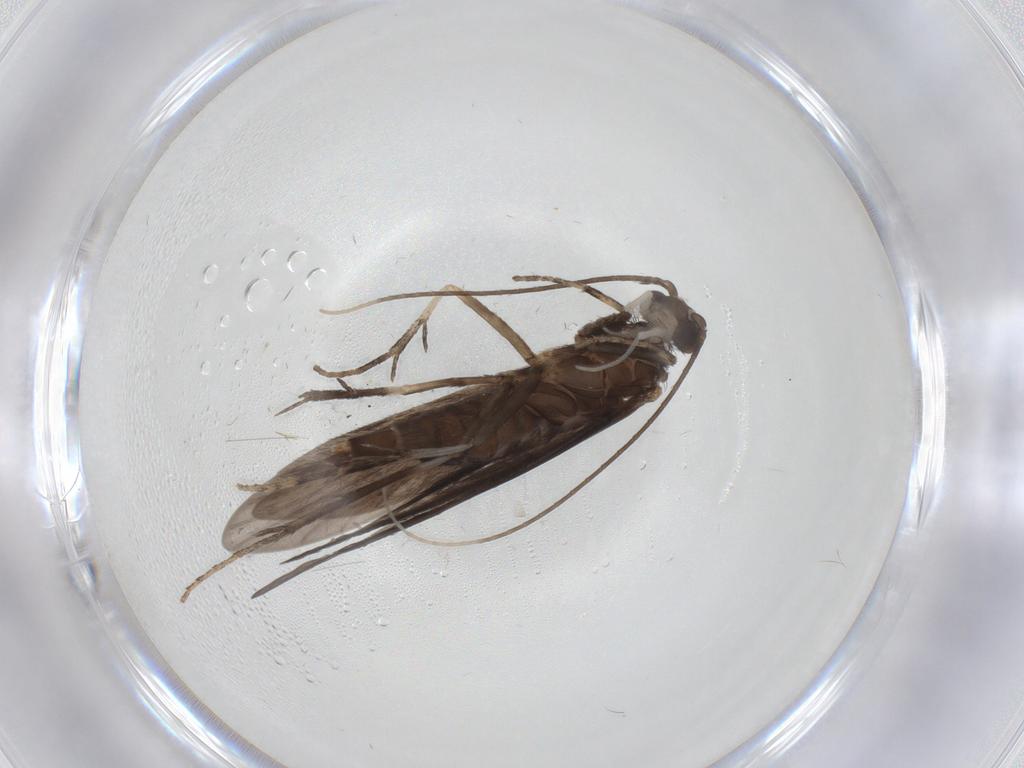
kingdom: Animalia
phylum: Arthropoda
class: Insecta
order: Trichoptera
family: Xiphocentronidae
